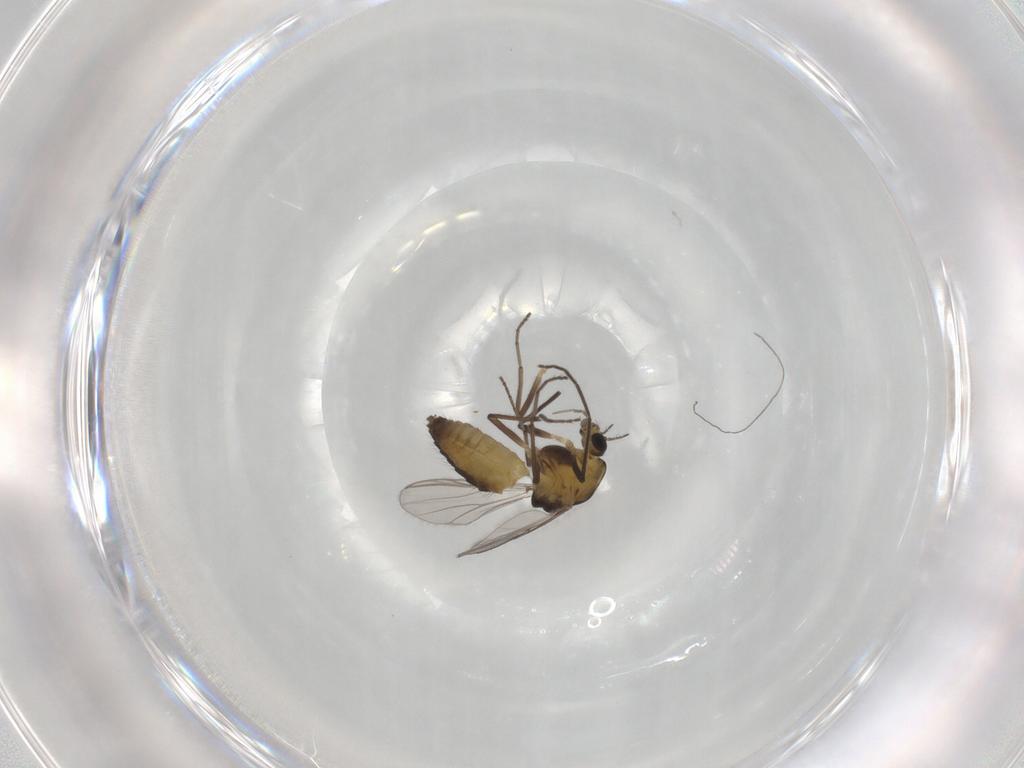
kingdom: Animalia
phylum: Arthropoda
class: Insecta
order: Diptera
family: Chironomidae
